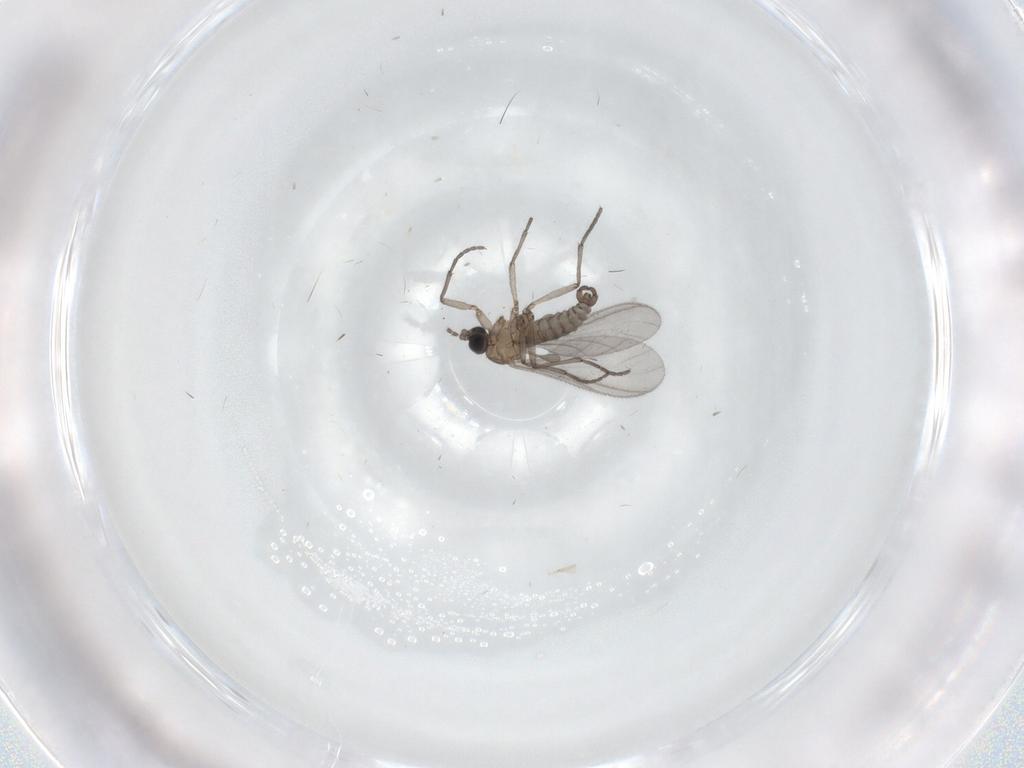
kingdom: Animalia
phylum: Arthropoda
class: Insecta
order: Diptera
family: Sciaridae
